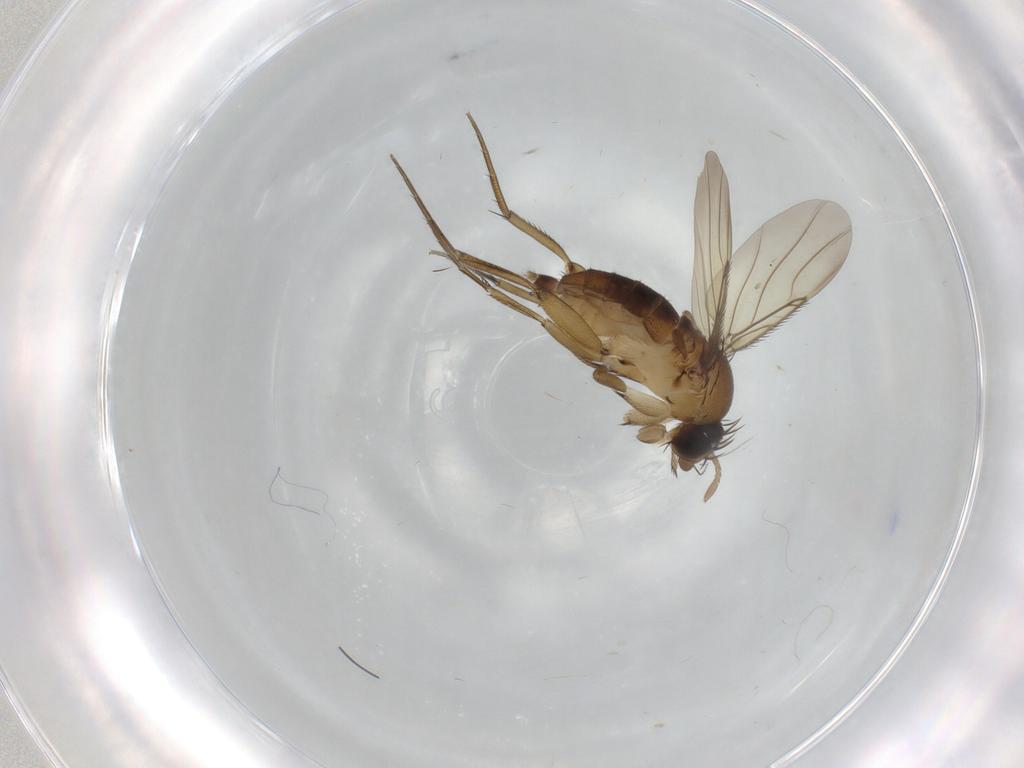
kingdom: Animalia
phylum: Arthropoda
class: Insecta
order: Diptera
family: Phoridae
